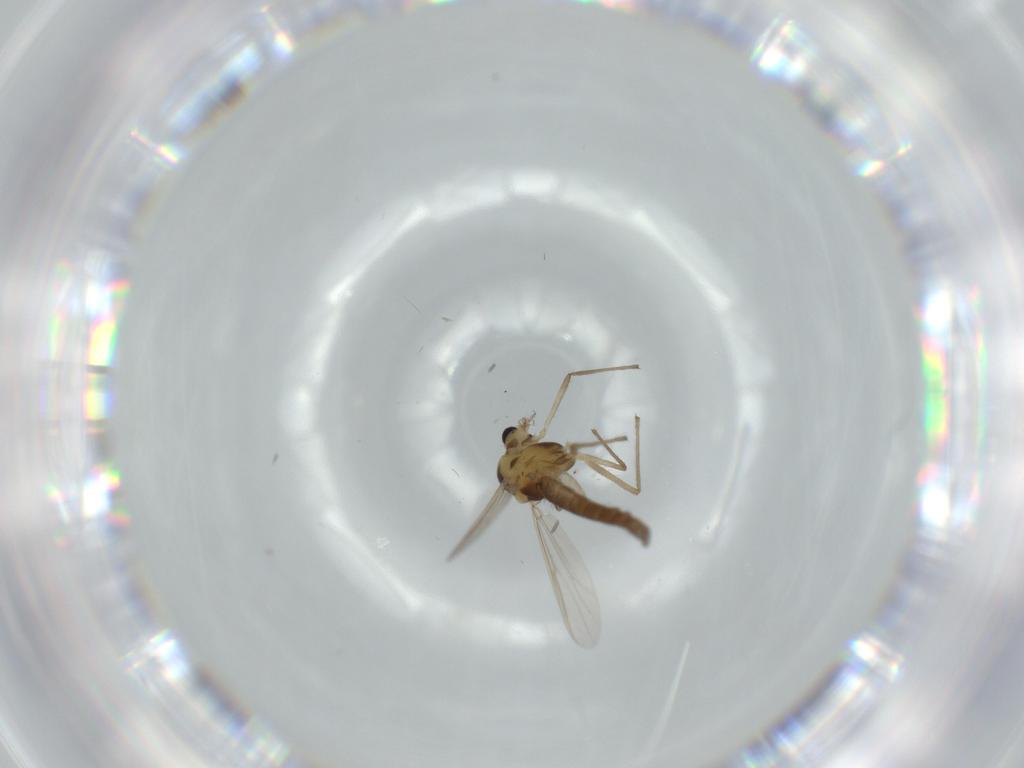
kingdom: Animalia
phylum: Arthropoda
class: Insecta
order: Diptera
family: Chironomidae
